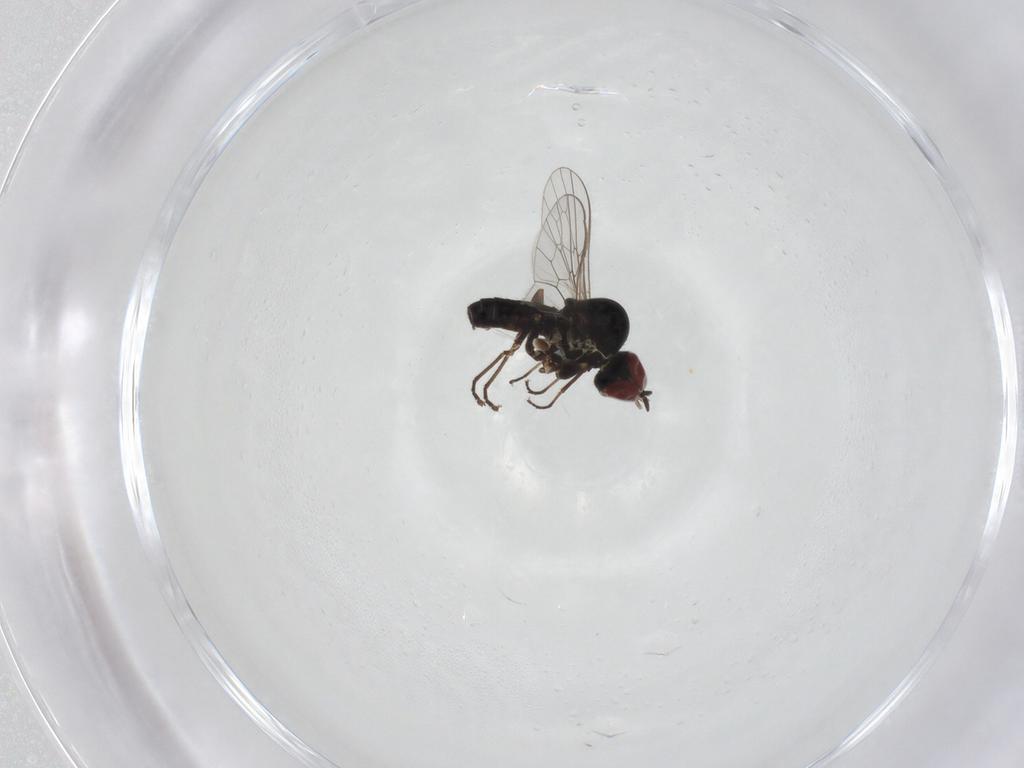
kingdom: Animalia
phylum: Arthropoda
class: Insecta
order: Diptera
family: Mythicomyiidae
